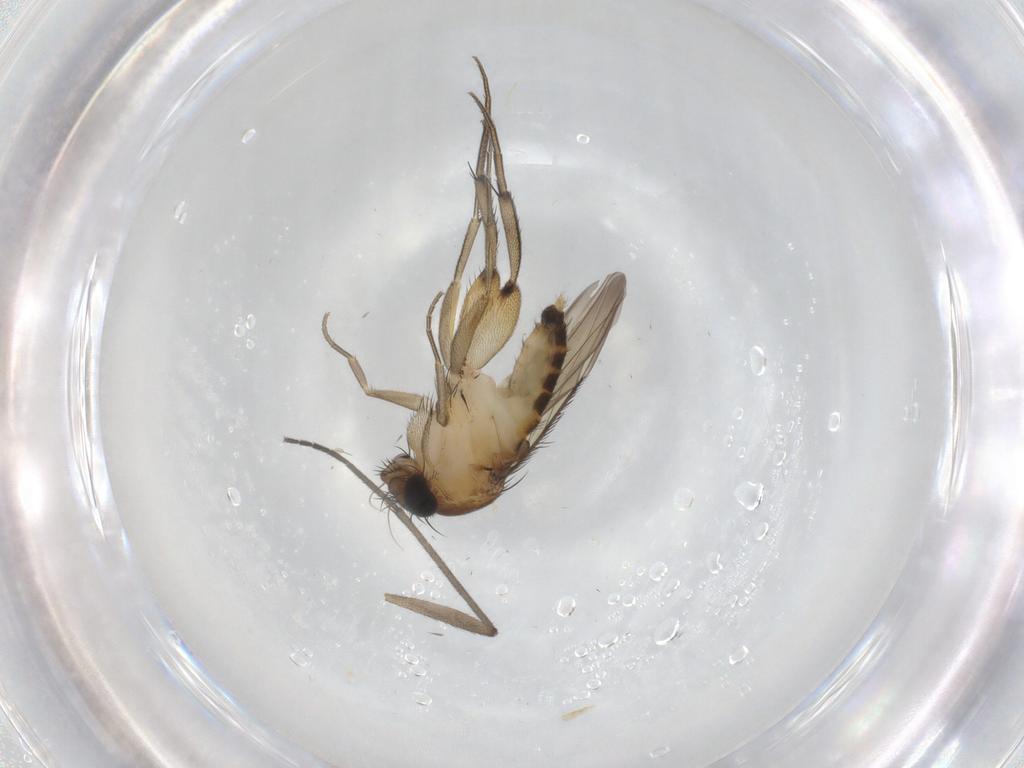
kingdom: Animalia
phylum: Arthropoda
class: Insecta
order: Diptera
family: Phoridae
